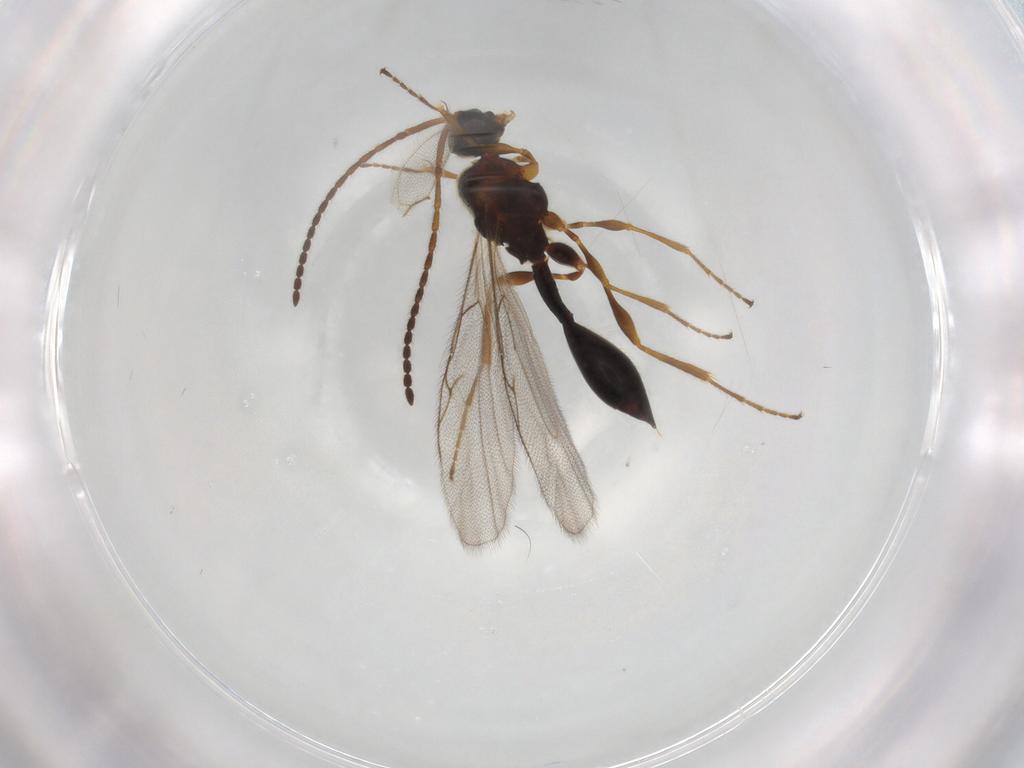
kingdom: Animalia
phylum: Arthropoda
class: Insecta
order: Hymenoptera
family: Diapriidae
